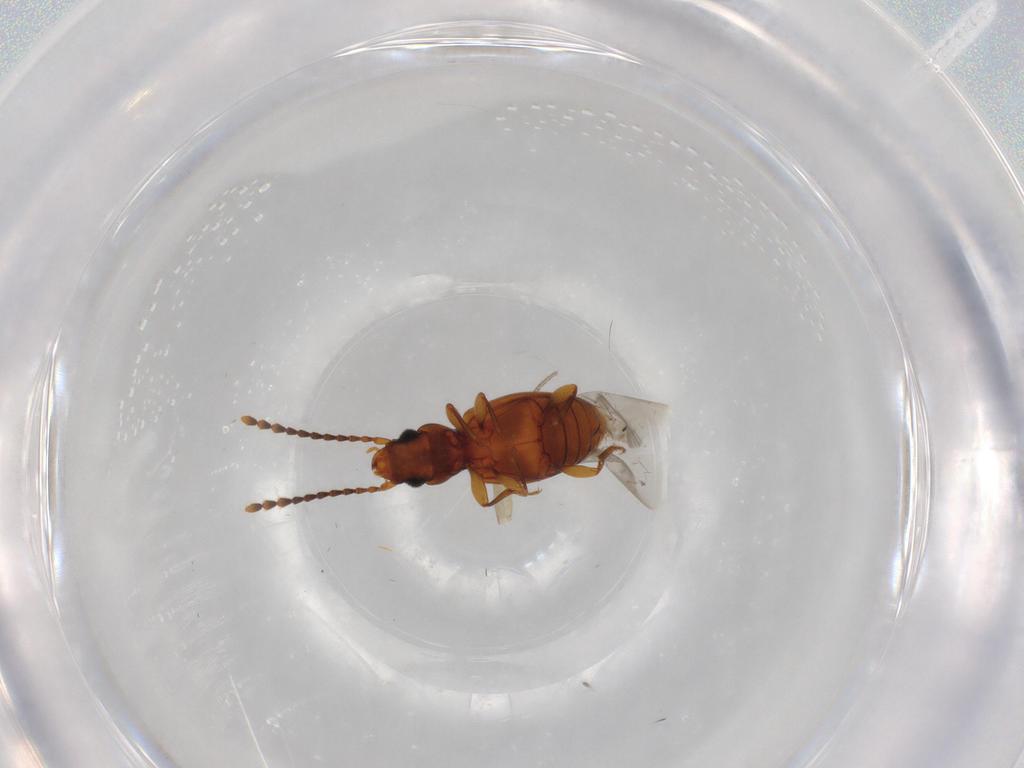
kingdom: Animalia
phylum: Arthropoda
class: Insecta
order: Coleoptera
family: Laemophloeidae
